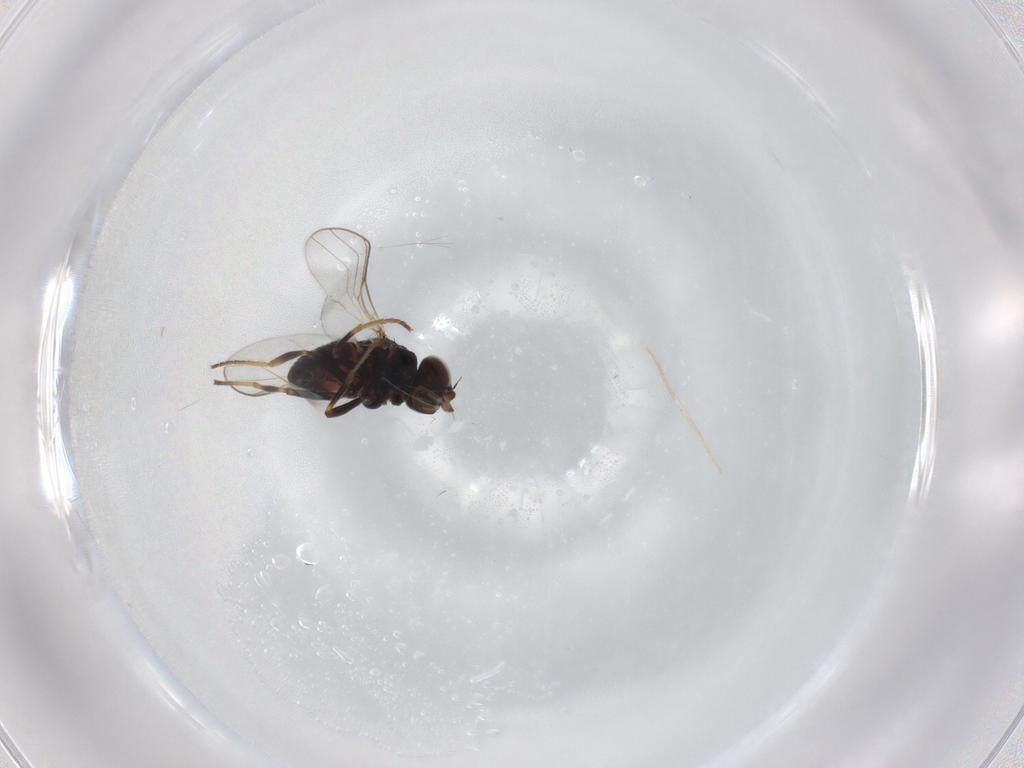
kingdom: Animalia
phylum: Arthropoda
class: Insecta
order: Diptera
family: Chloropidae
